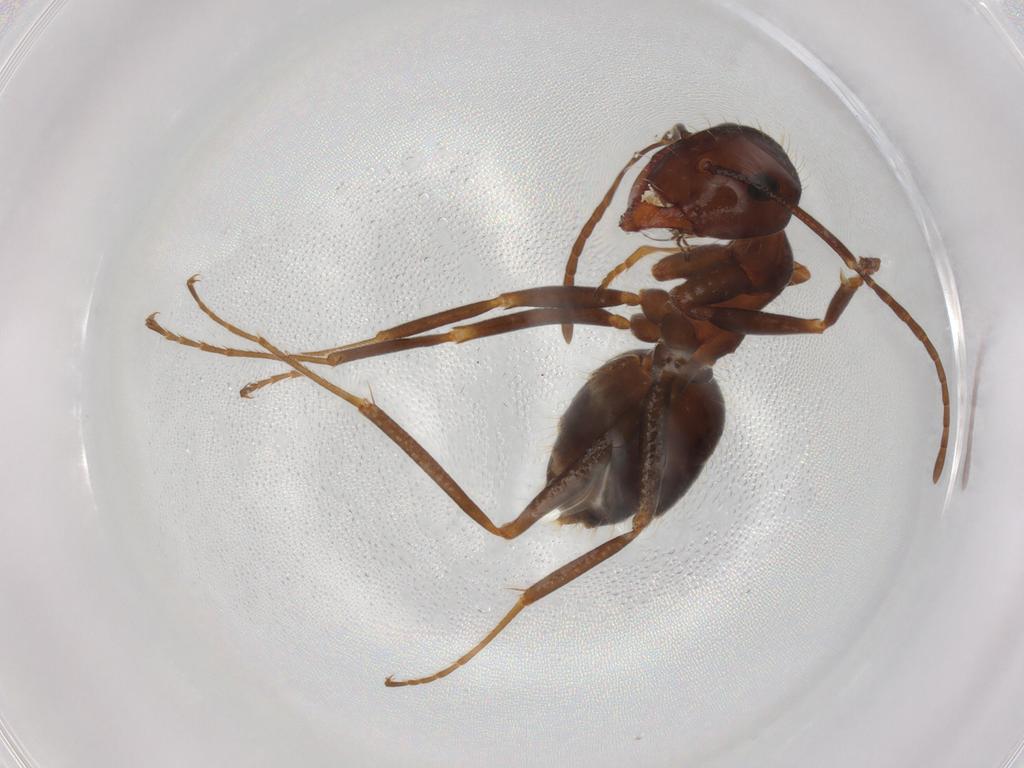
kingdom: Animalia
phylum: Arthropoda
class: Insecta
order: Hymenoptera
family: Formicidae
